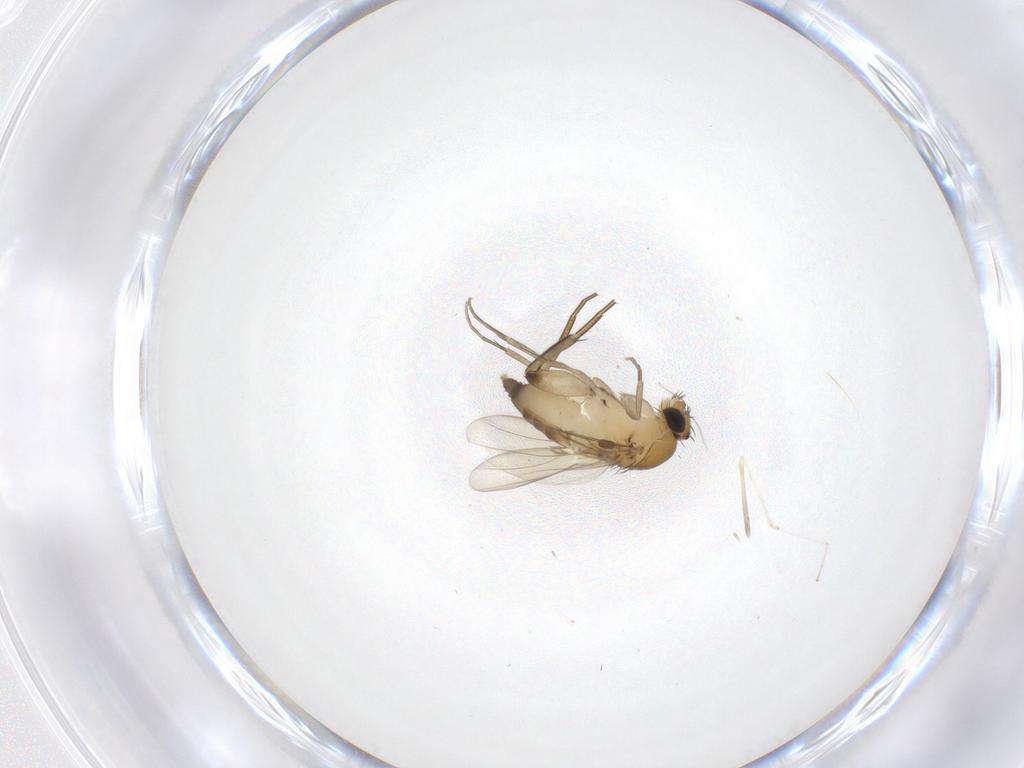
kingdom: Animalia
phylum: Arthropoda
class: Insecta
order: Diptera
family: Phoridae
